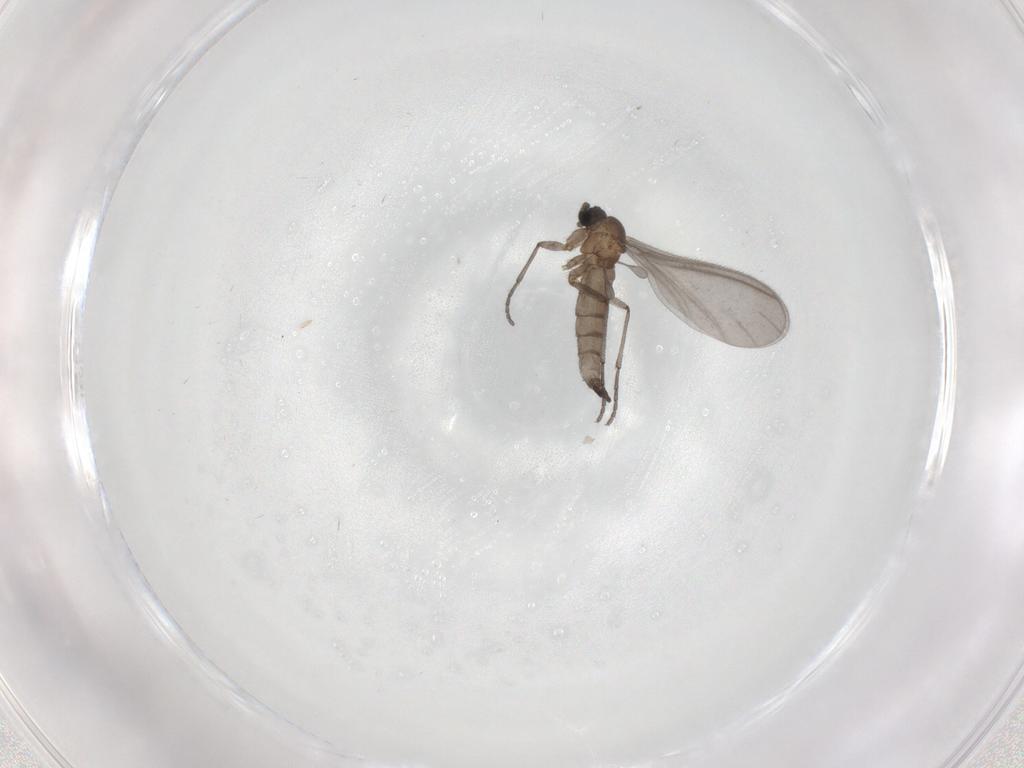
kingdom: Animalia
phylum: Arthropoda
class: Insecta
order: Diptera
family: Sciaridae
